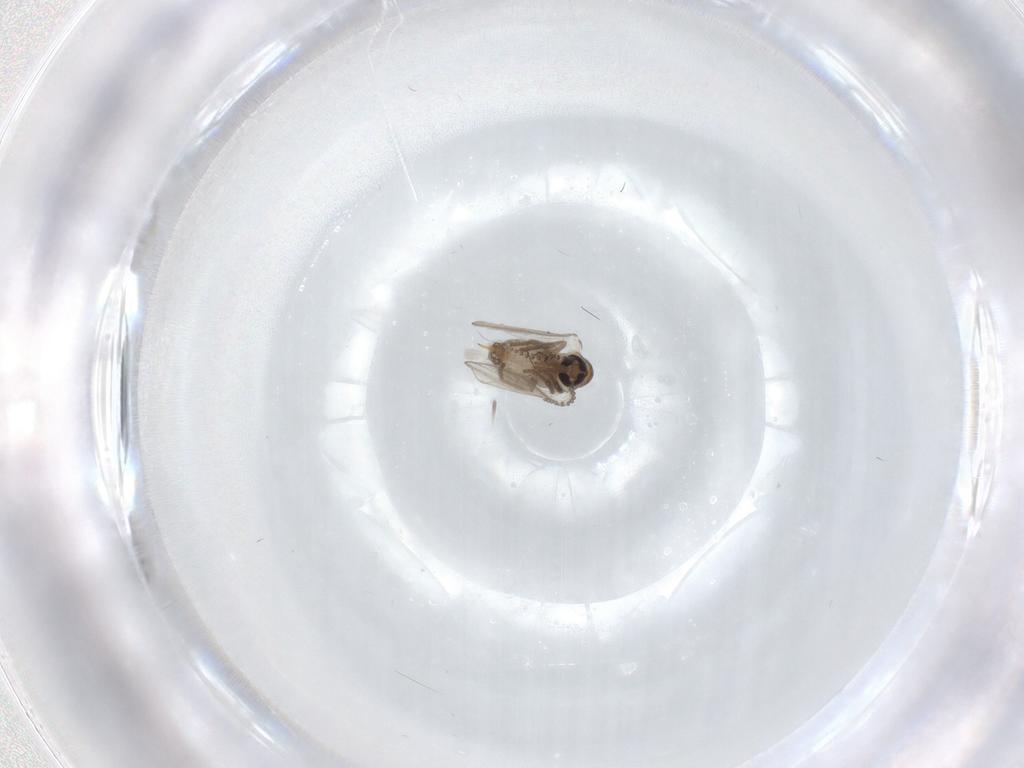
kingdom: Animalia
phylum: Arthropoda
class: Insecta
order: Diptera
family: Psychodidae
